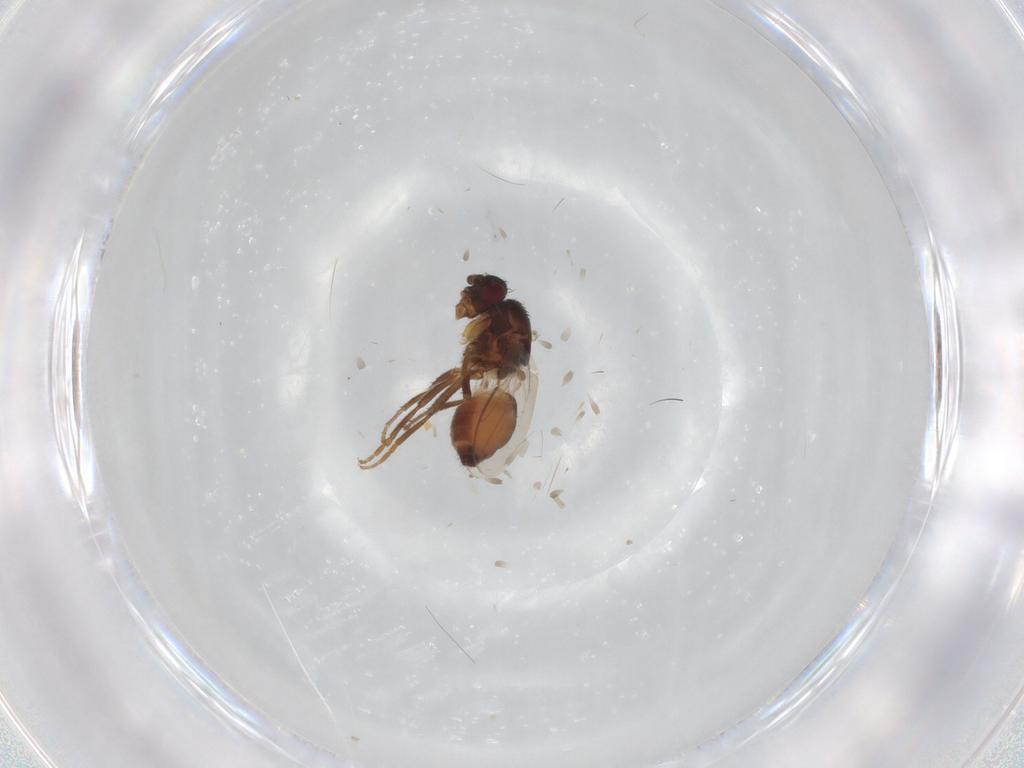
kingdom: Animalia
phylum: Arthropoda
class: Insecta
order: Diptera
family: Sphaeroceridae
